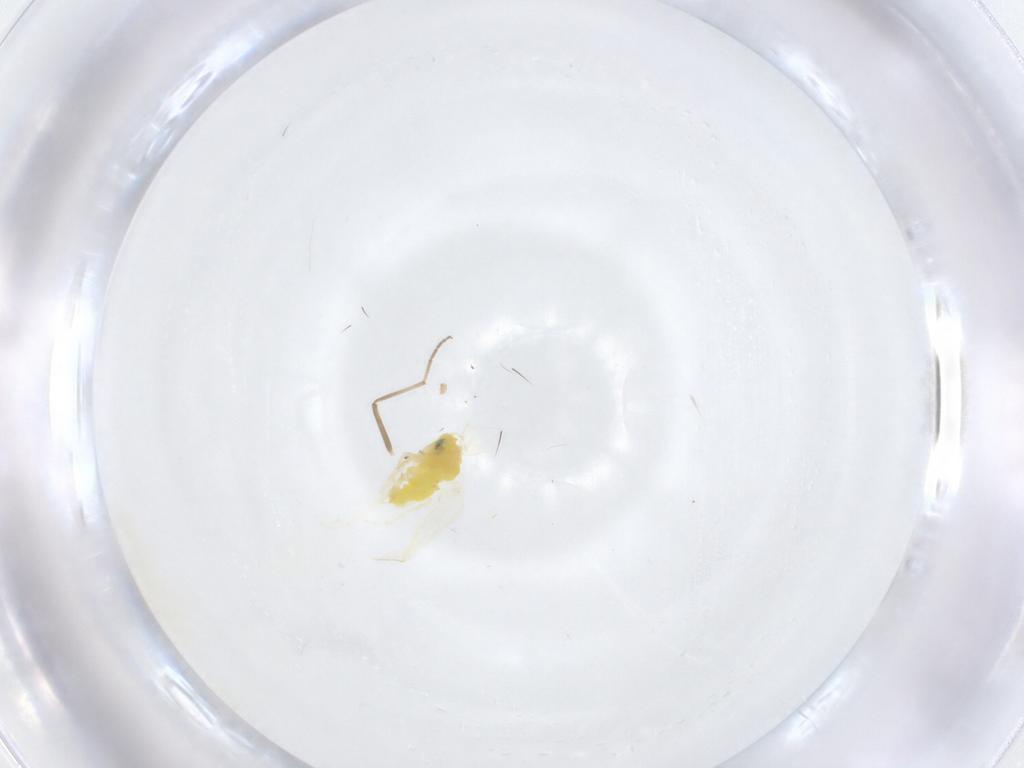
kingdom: Animalia
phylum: Arthropoda
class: Insecta
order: Hemiptera
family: Aleyrodidae
